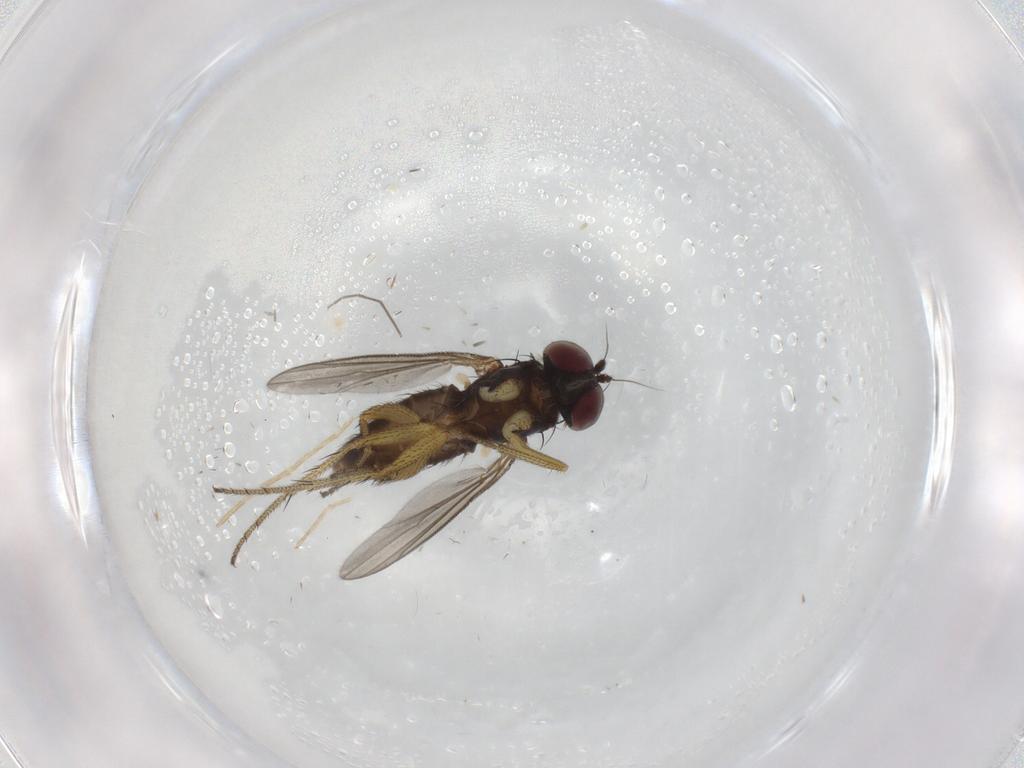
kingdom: Animalia
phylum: Arthropoda
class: Insecta
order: Diptera
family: Dolichopodidae
